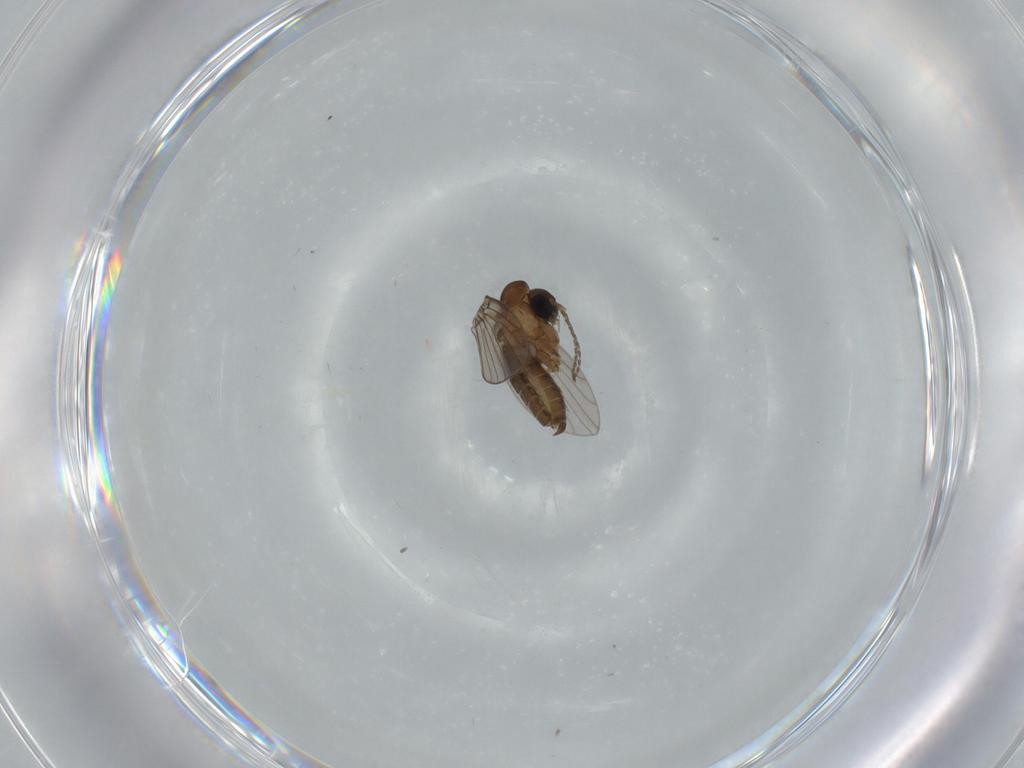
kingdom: Animalia
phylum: Arthropoda
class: Insecta
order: Diptera
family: Psychodidae
